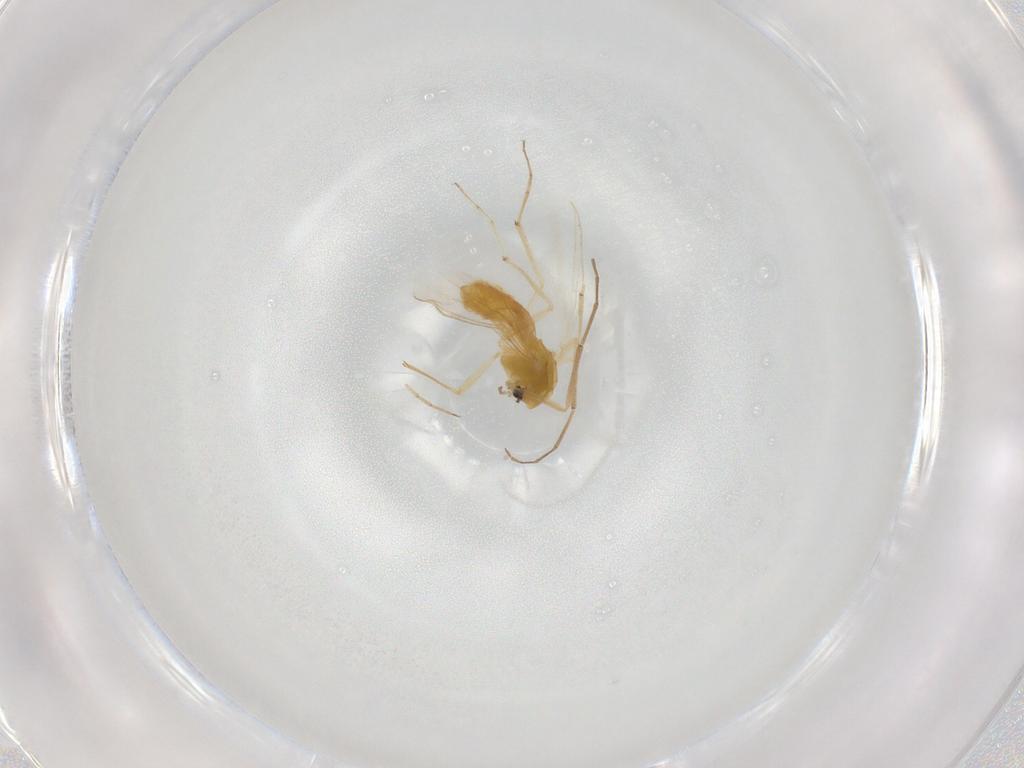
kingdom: Animalia
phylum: Arthropoda
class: Insecta
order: Diptera
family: Chironomidae
